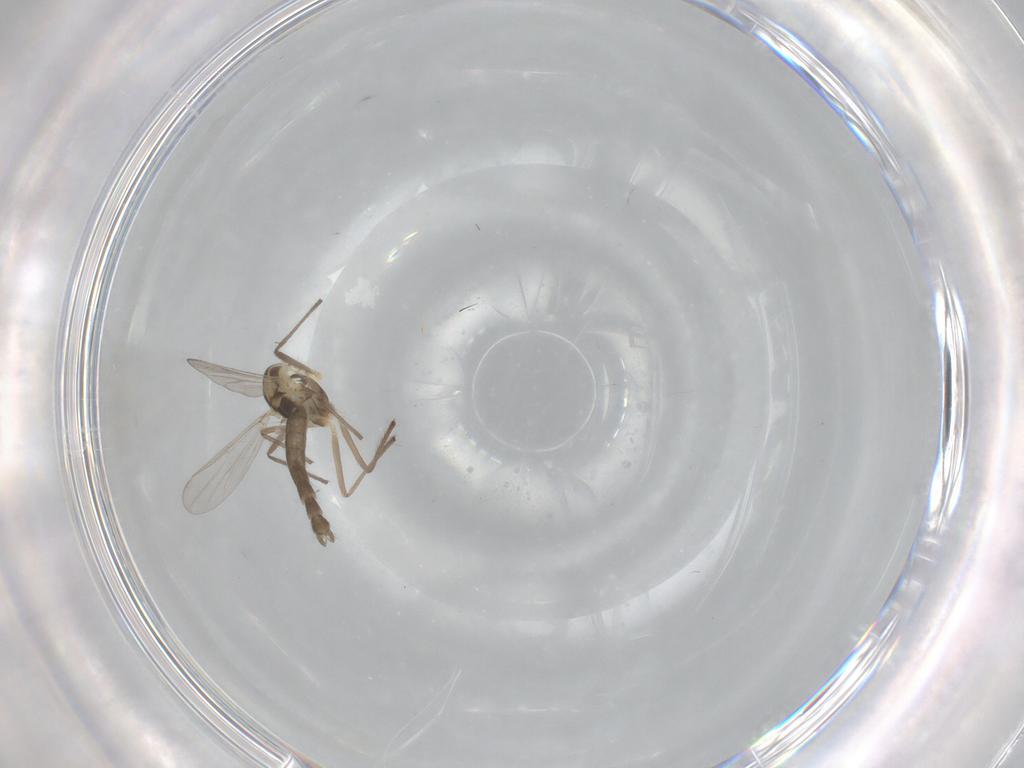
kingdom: Animalia
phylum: Arthropoda
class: Insecta
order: Diptera
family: Chironomidae
